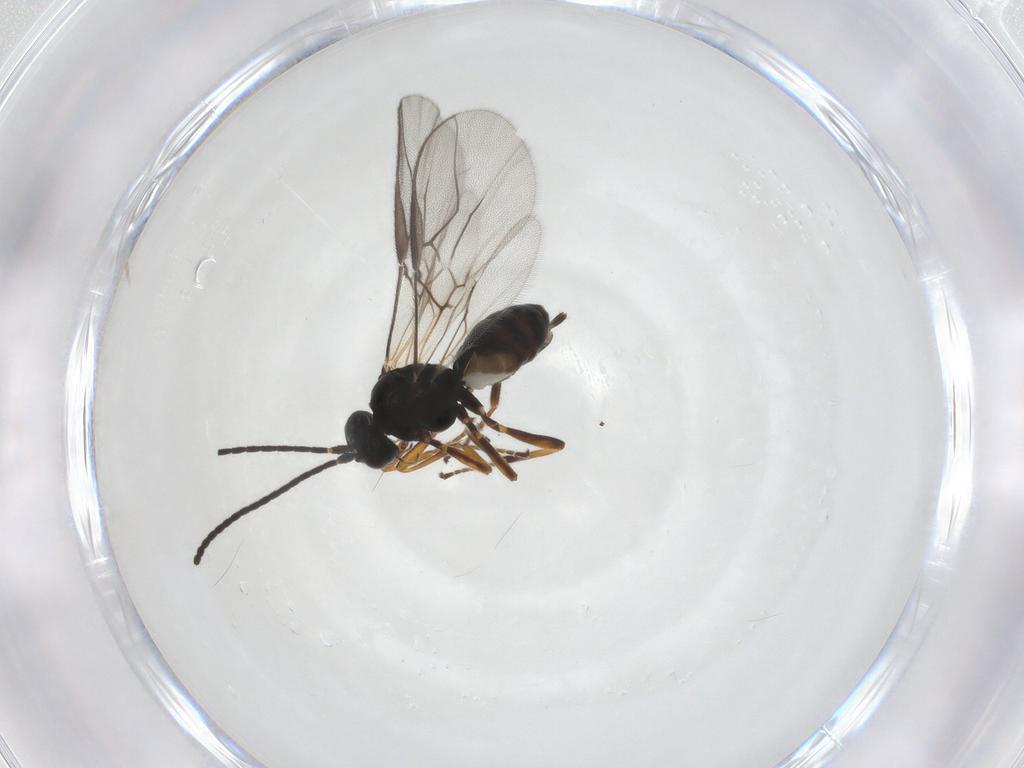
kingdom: Animalia
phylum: Arthropoda
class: Insecta
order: Hymenoptera
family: Braconidae
